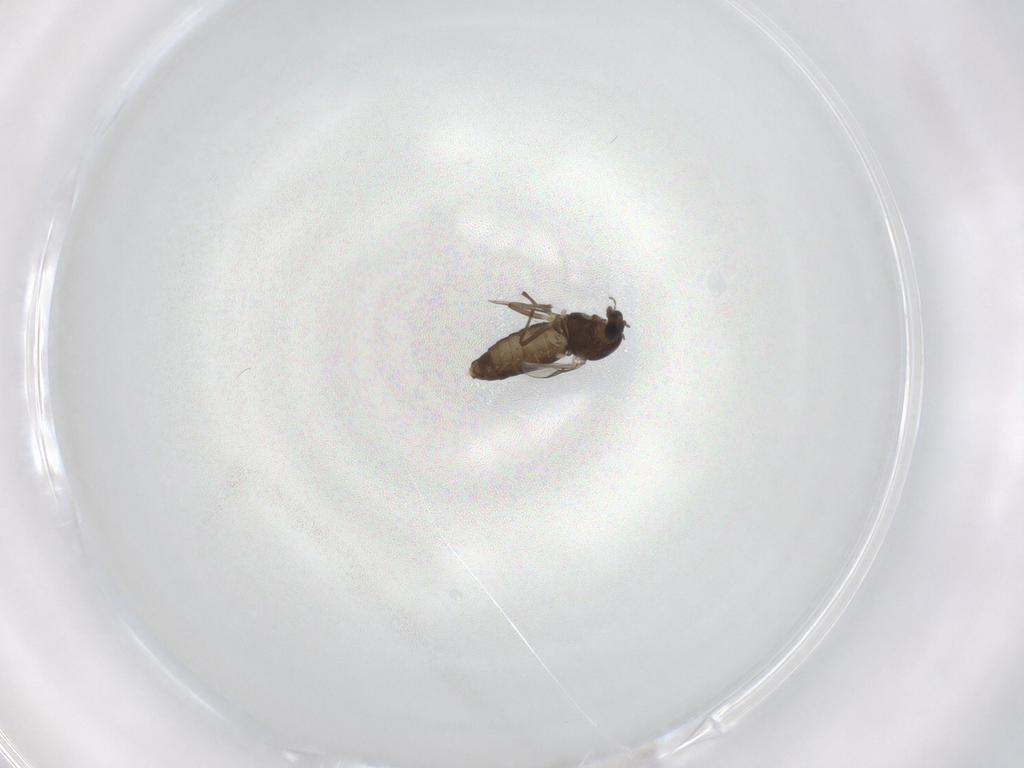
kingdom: Animalia
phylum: Arthropoda
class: Insecta
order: Diptera
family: Chironomidae
